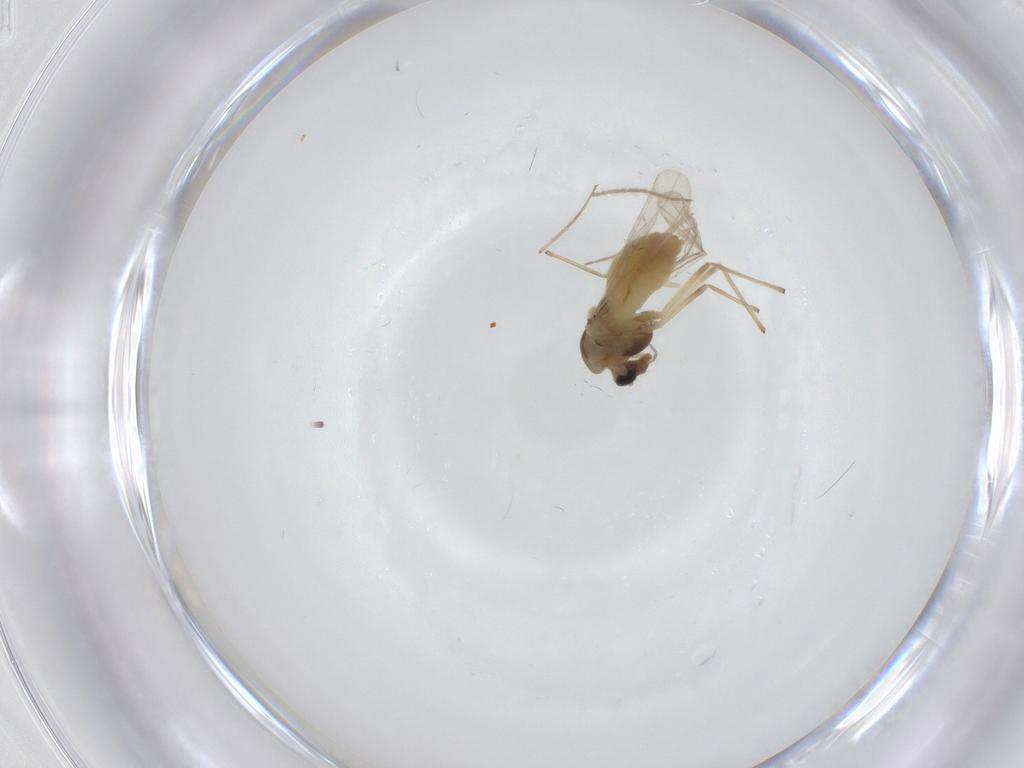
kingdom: Animalia
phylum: Arthropoda
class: Insecta
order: Diptera
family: Chironomidae
